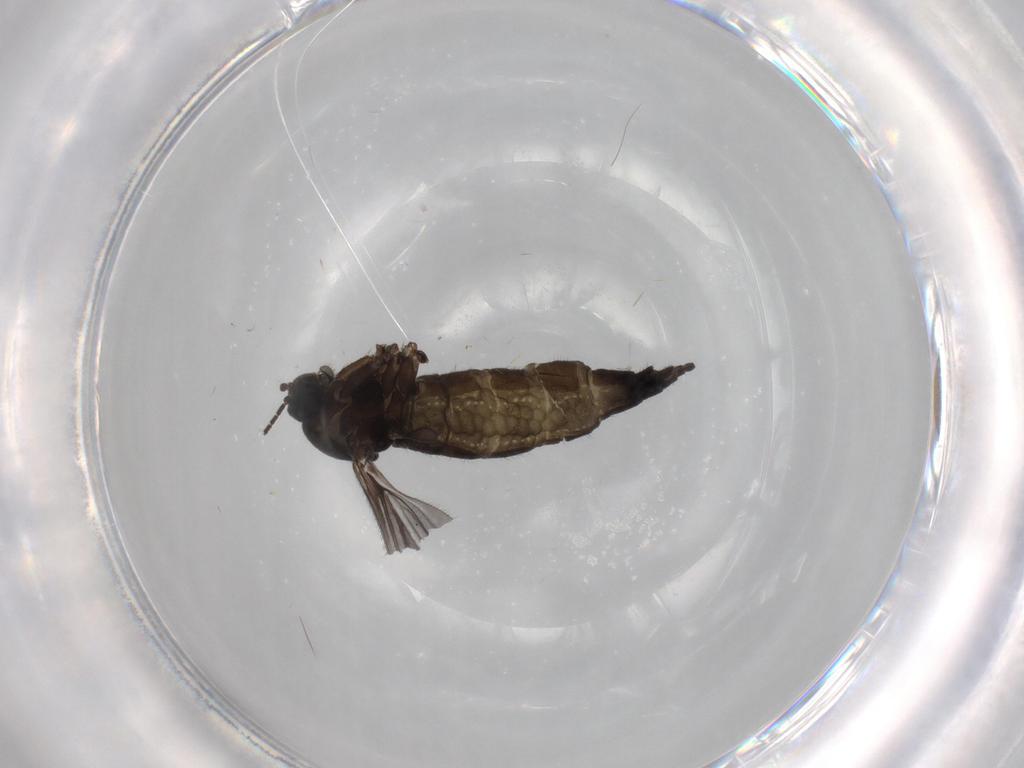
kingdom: Animalia
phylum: Arthropoda
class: Insecta
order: Diptera
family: Sciaridae
